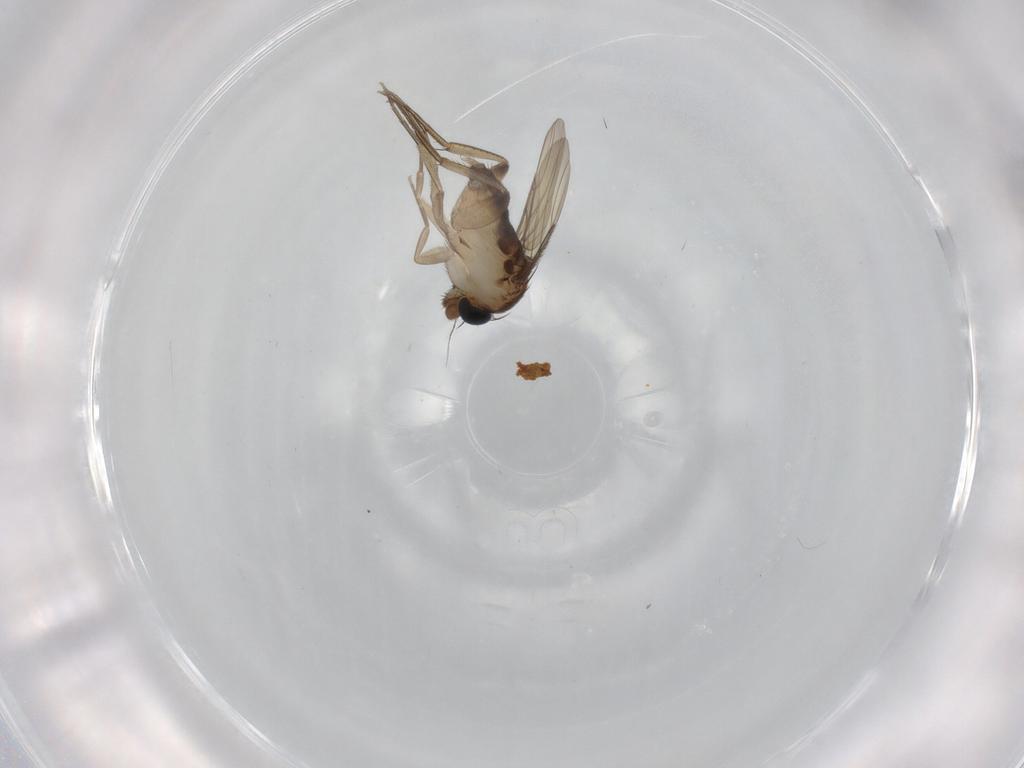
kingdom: Animalia
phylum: Arthropoda
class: Insecta
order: Diptera
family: Phoridae
